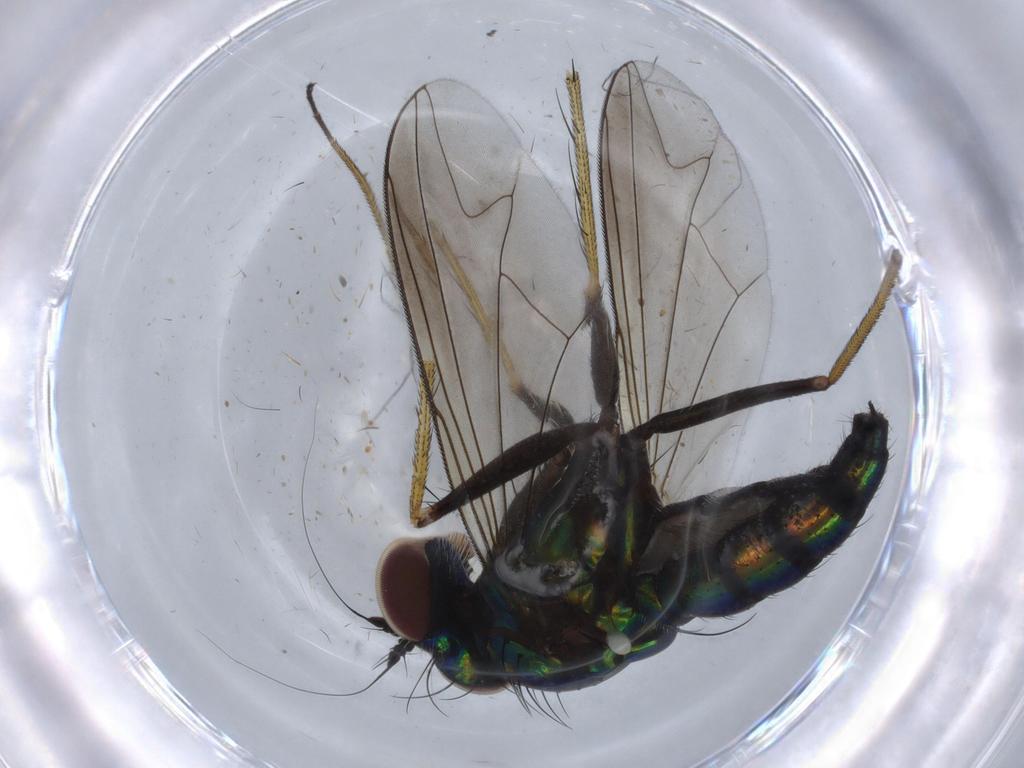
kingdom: Animalia
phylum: Arthropoda
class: Insecta
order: Diptera
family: Dolichopodidae
